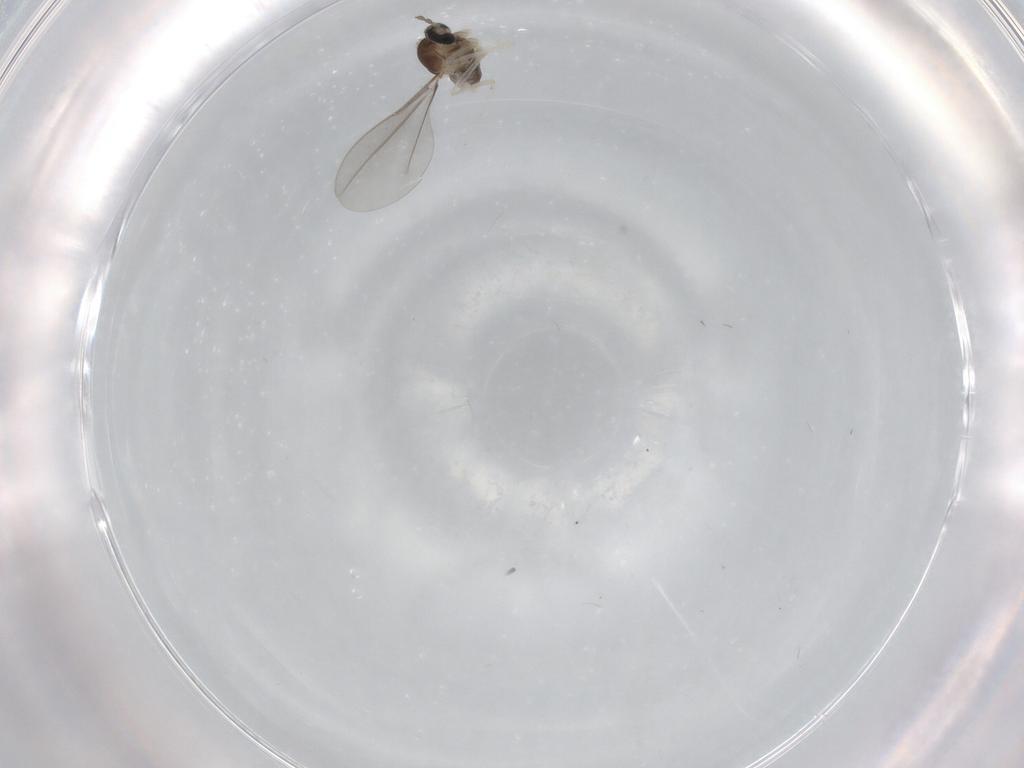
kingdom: Animalia
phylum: Arthropoda
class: Insecta
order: Diptera
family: Cecidomyiidae
